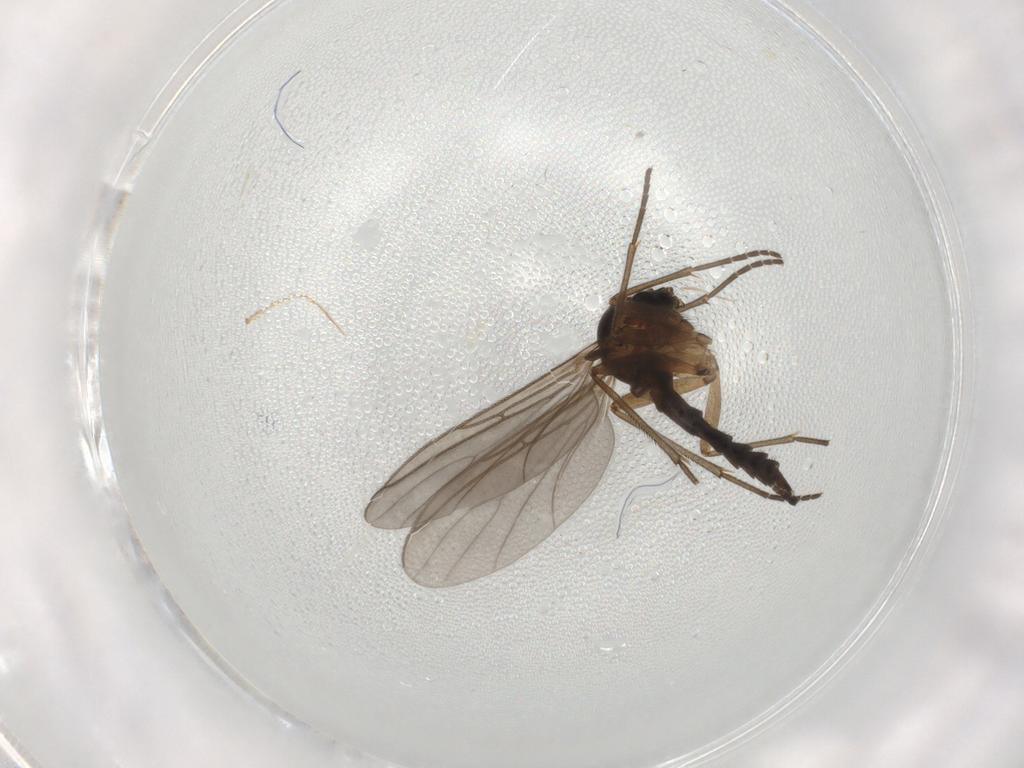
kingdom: Animalia
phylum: Arthropoda
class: Insecta
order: Diptera
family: Sciaridae
